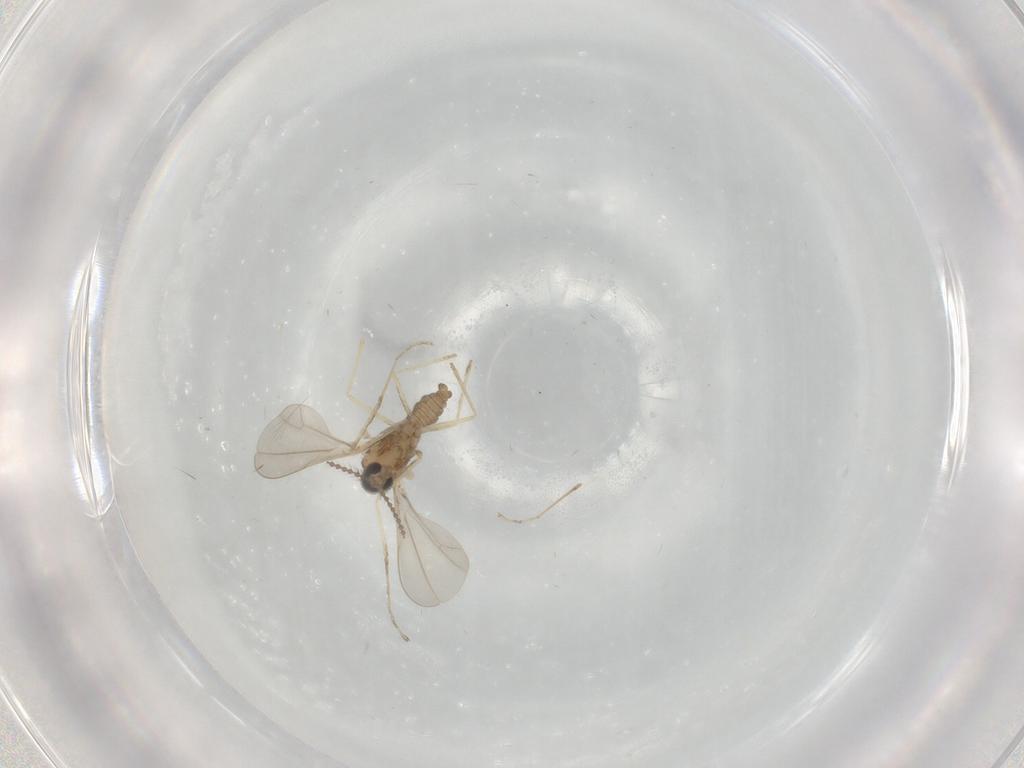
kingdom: Animalia
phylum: Arthropoda
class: Insecta
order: Diptera
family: Cecidomyiidae
